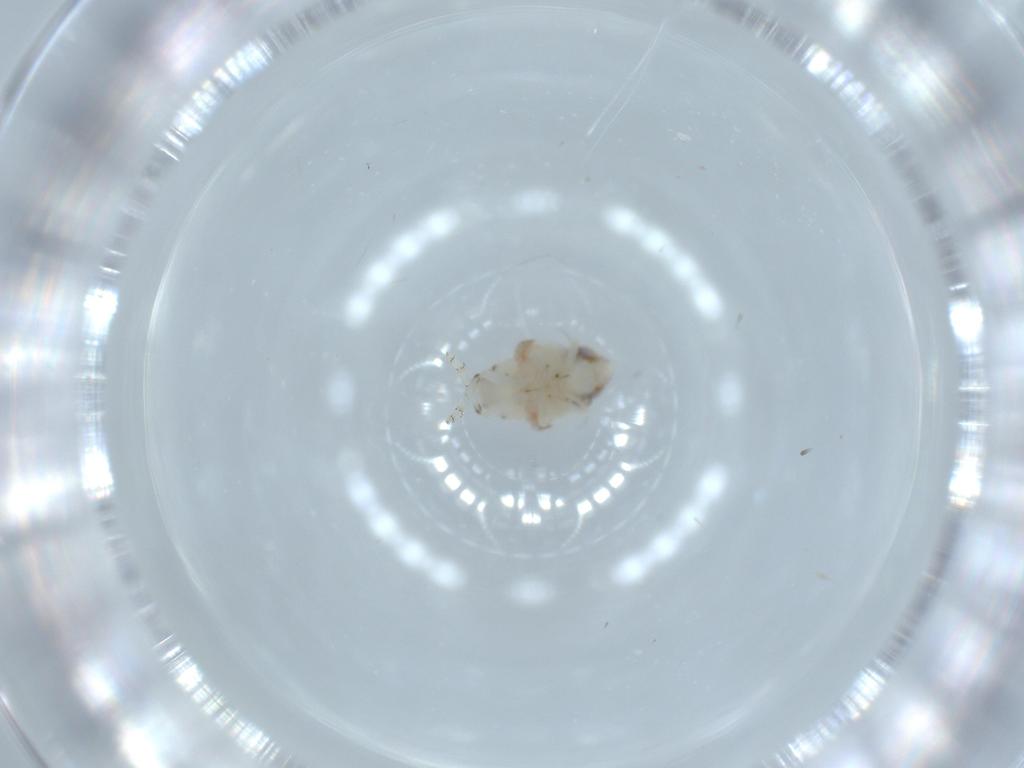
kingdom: Animalia
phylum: Arthropoda
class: Insecta
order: Hemiptera
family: Nogodinidae
